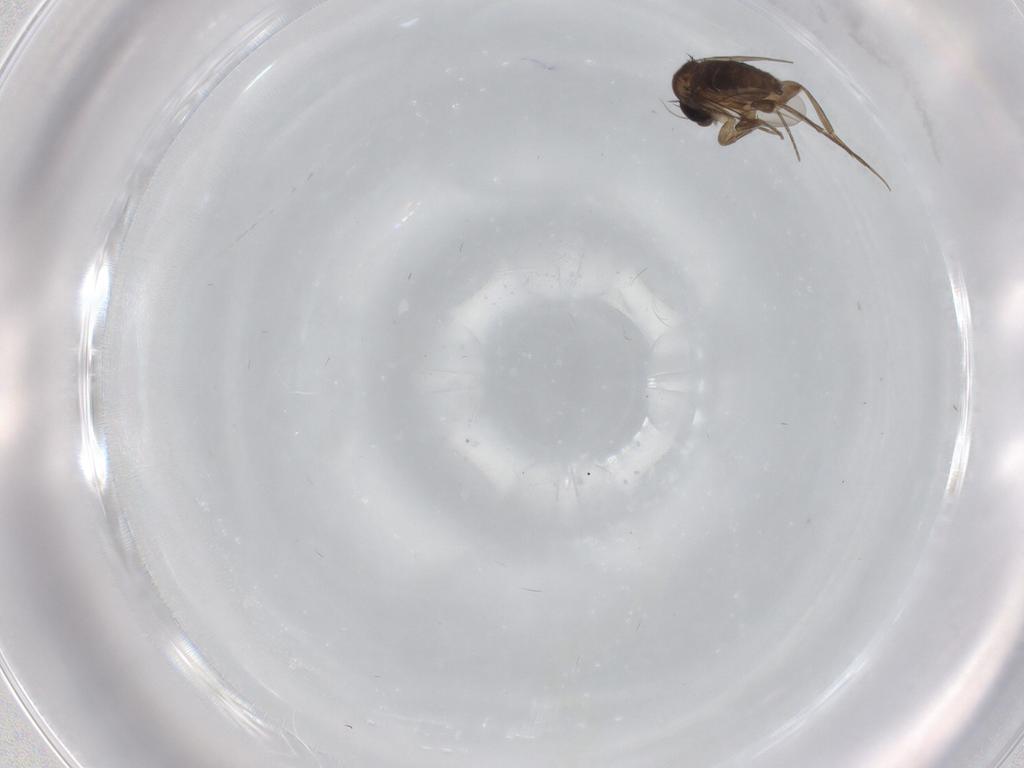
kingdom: Animalia
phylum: Arthropoda
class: Insecta
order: Diptera
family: Phoridae
